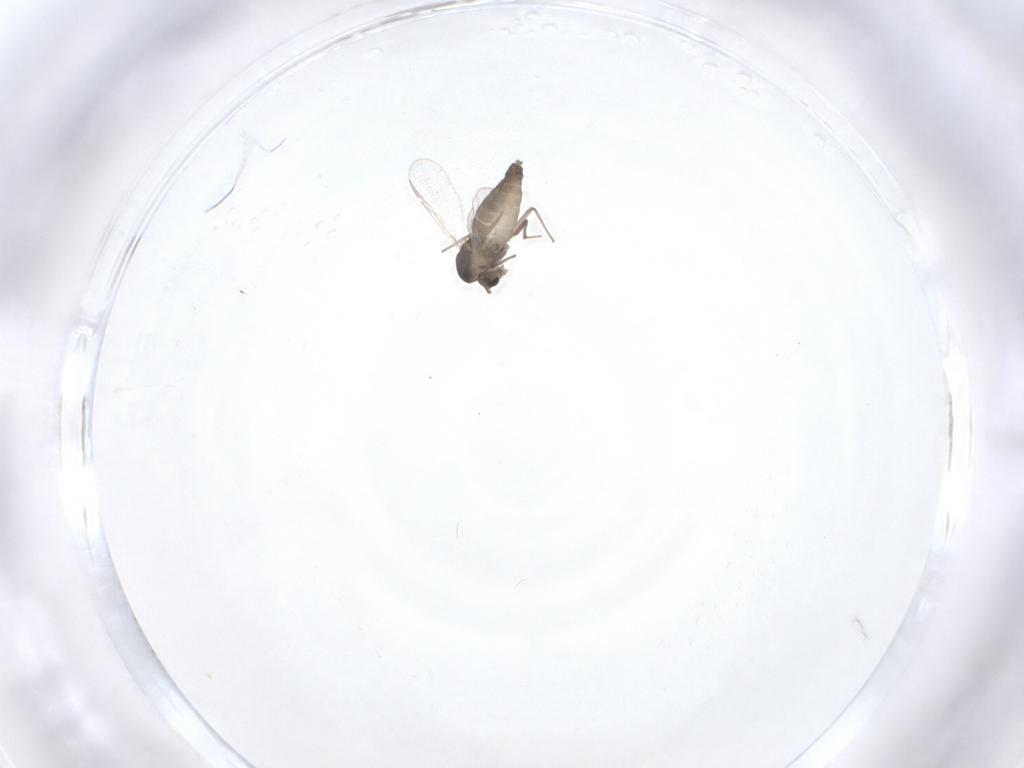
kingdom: Animalia
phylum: Arthropoda
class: Insecta
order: Diptera
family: Chironomidae
